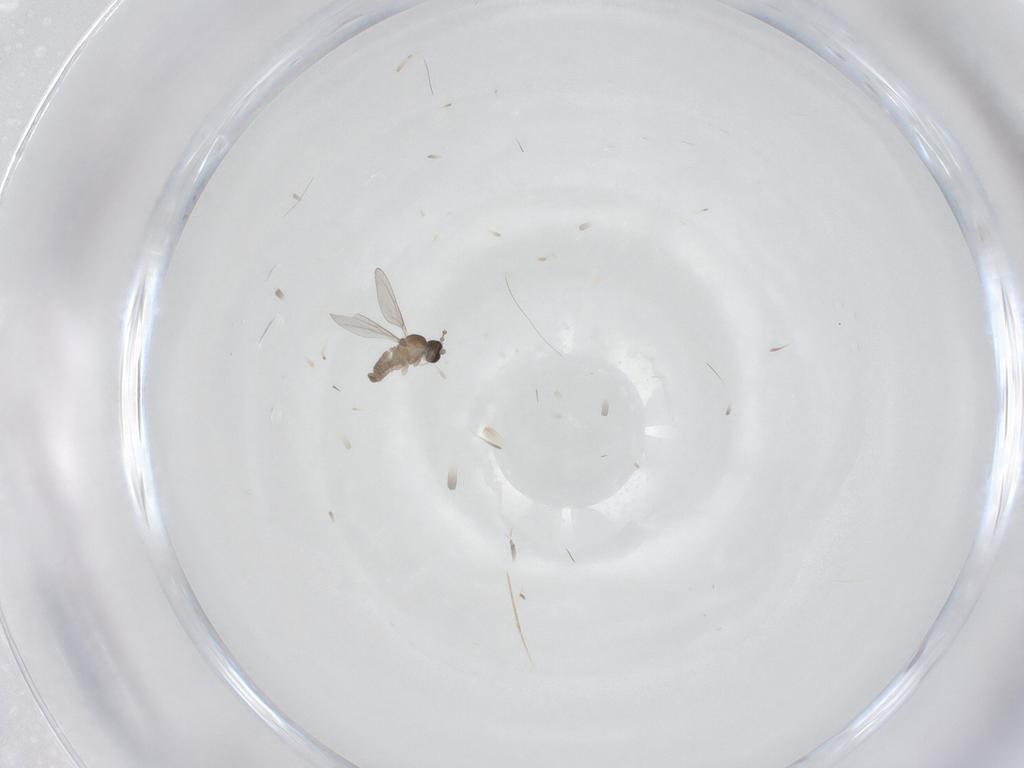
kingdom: Animalia
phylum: Arthropoda
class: Insecta
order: Diptera
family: Cecidomyiidae
